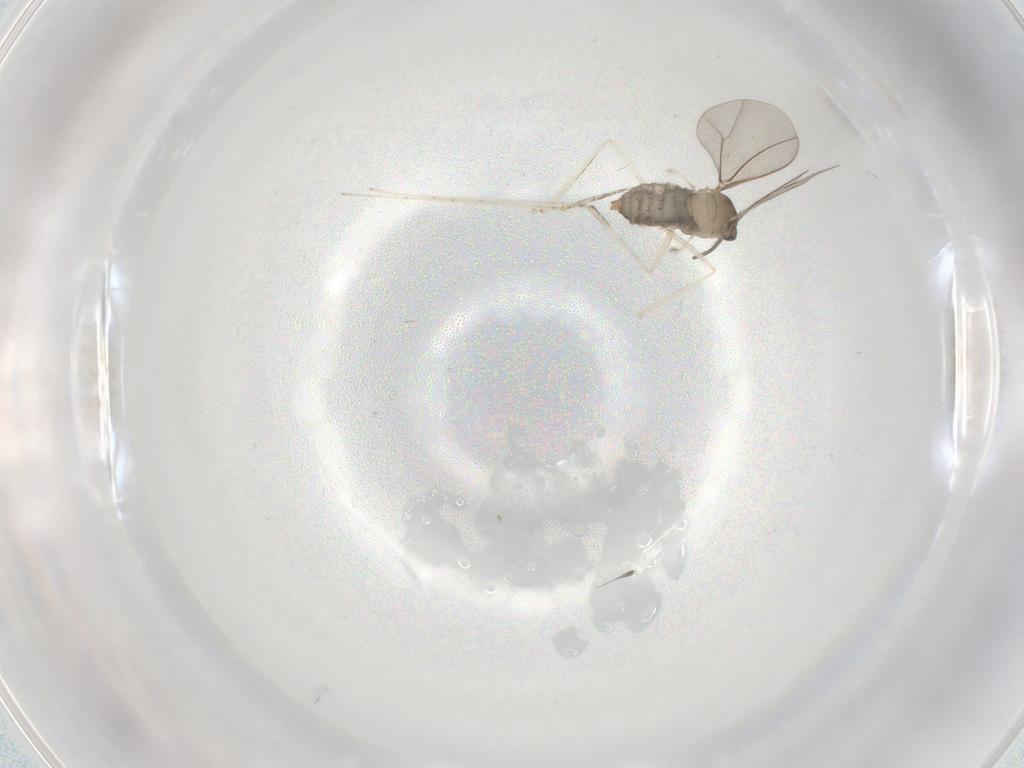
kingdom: Animalia
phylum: Arthropoda
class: Insecta
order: Diptera
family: Cecidomyiidae
